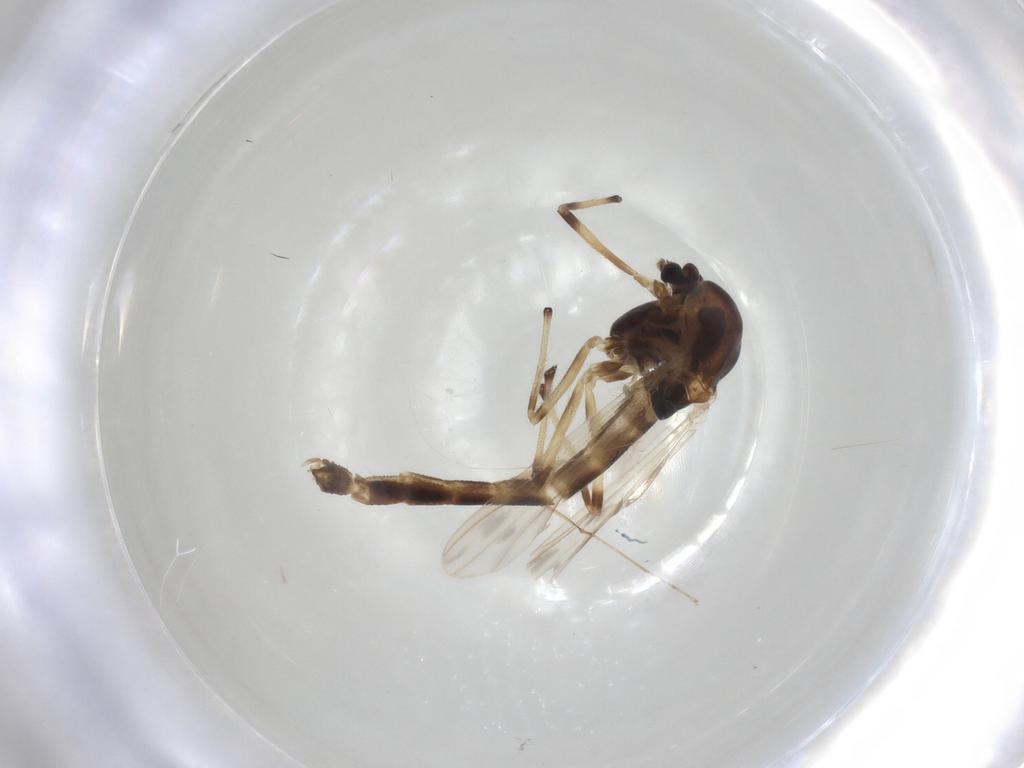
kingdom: Animalia
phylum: Arthropoda
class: Insecta
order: Diptera
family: Chironomidae
